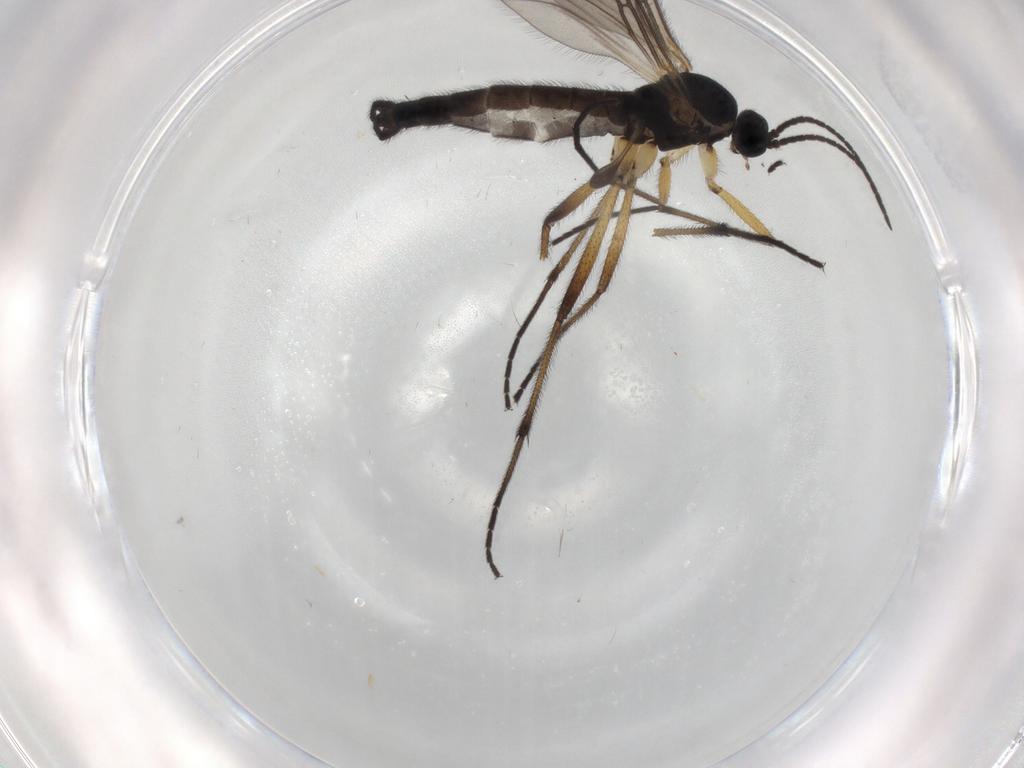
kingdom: Animalia
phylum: Arthropoda
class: Insecta
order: Diptera
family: Sciaridae
